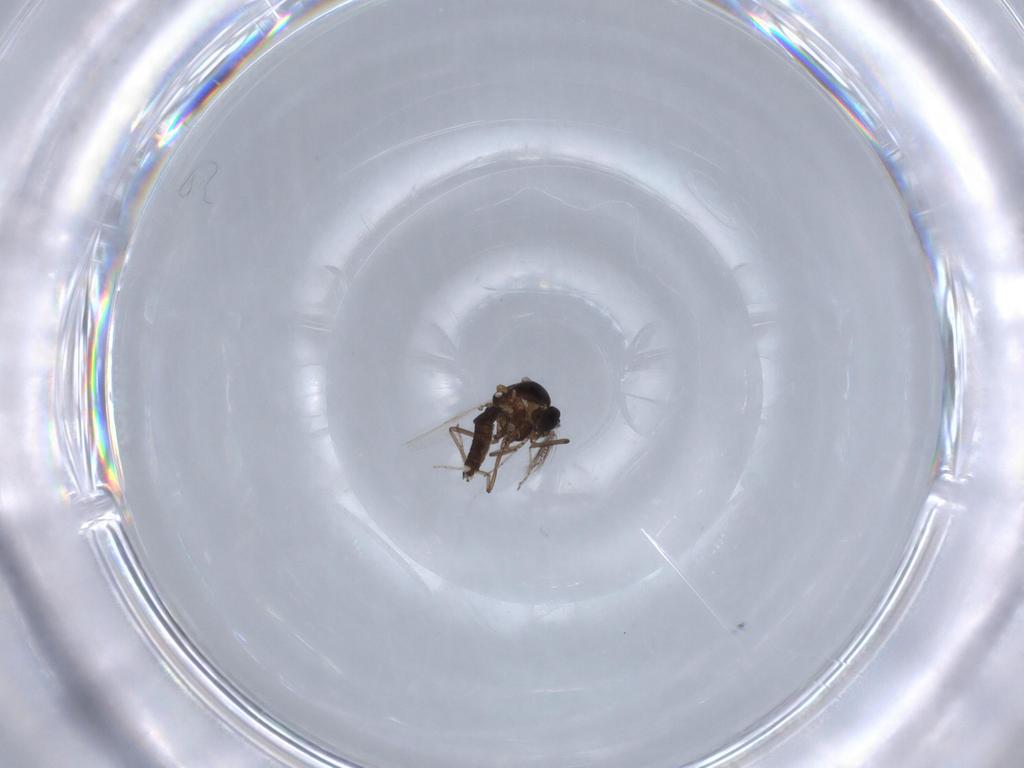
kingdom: Animalia
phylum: Arthropoda
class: Insecta
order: Diptera
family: Ceratopogonidae
